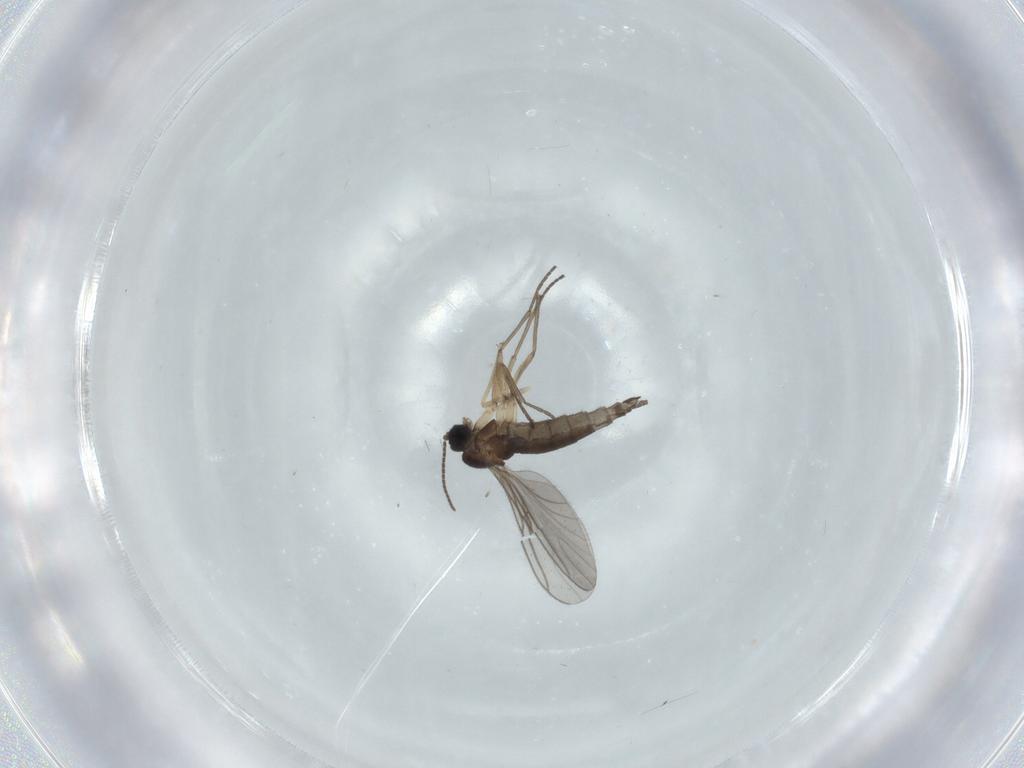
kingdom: Animalia
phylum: Arthropoda
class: Insecta
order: Diptera
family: Sciaridae
